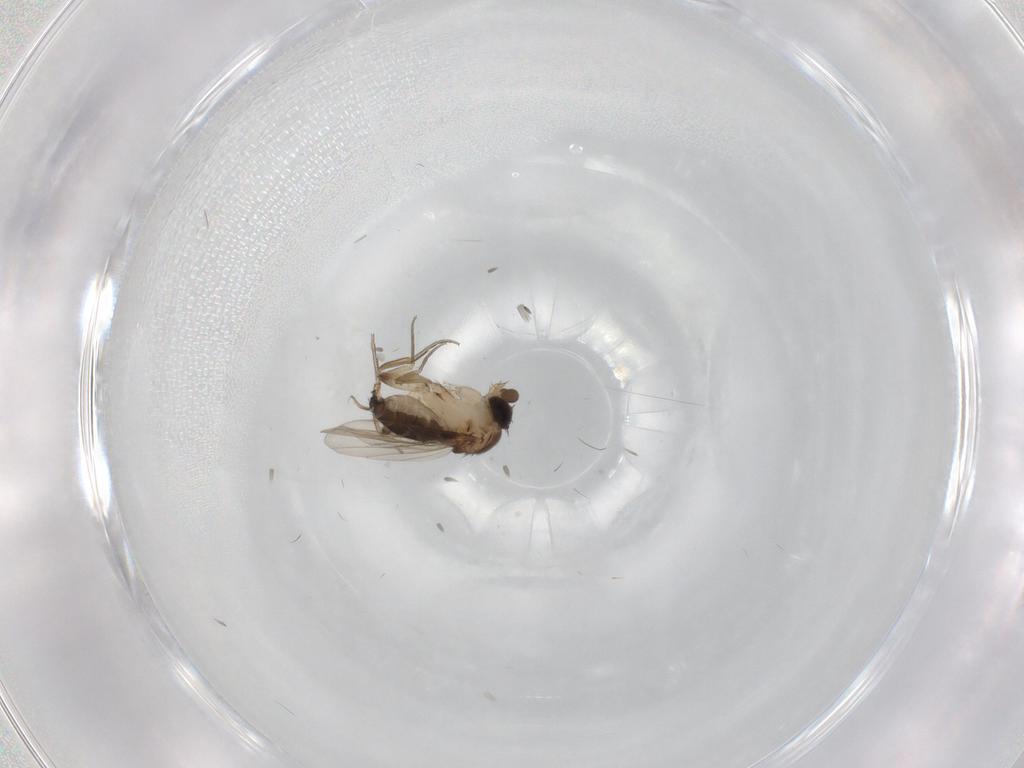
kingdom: Animalia
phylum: Arthropoda
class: Insecta
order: Diptera
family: Phoridae
